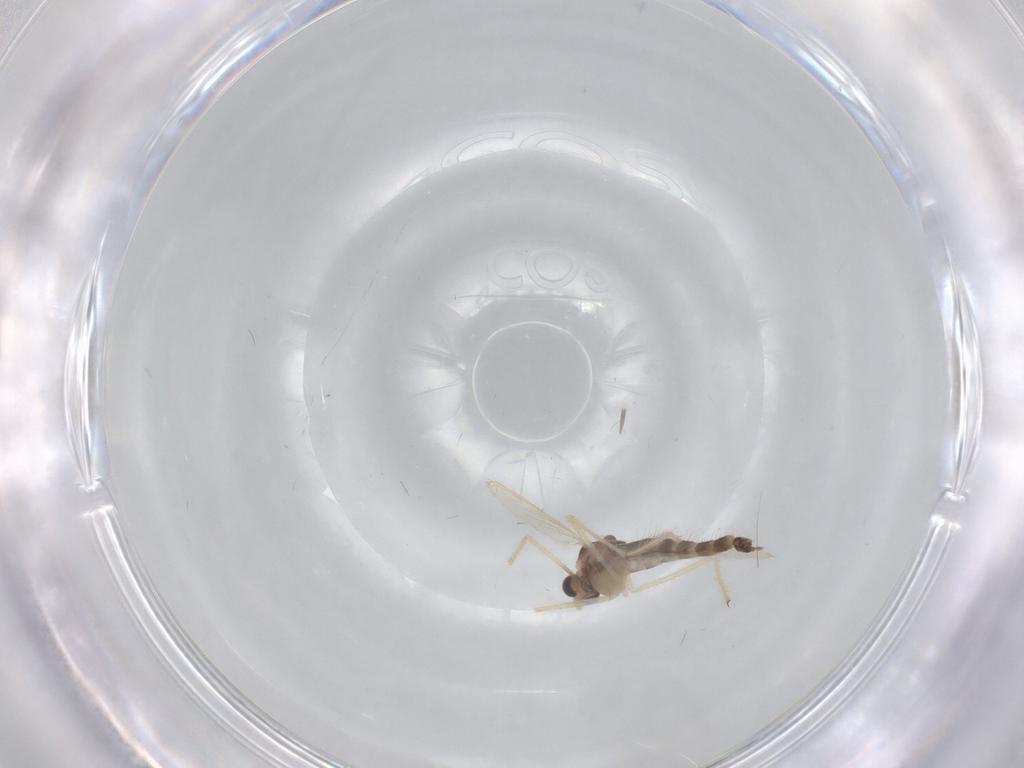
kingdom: Animalia
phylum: Arthropoda
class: Insecta
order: Diptera
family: Chironomidae
